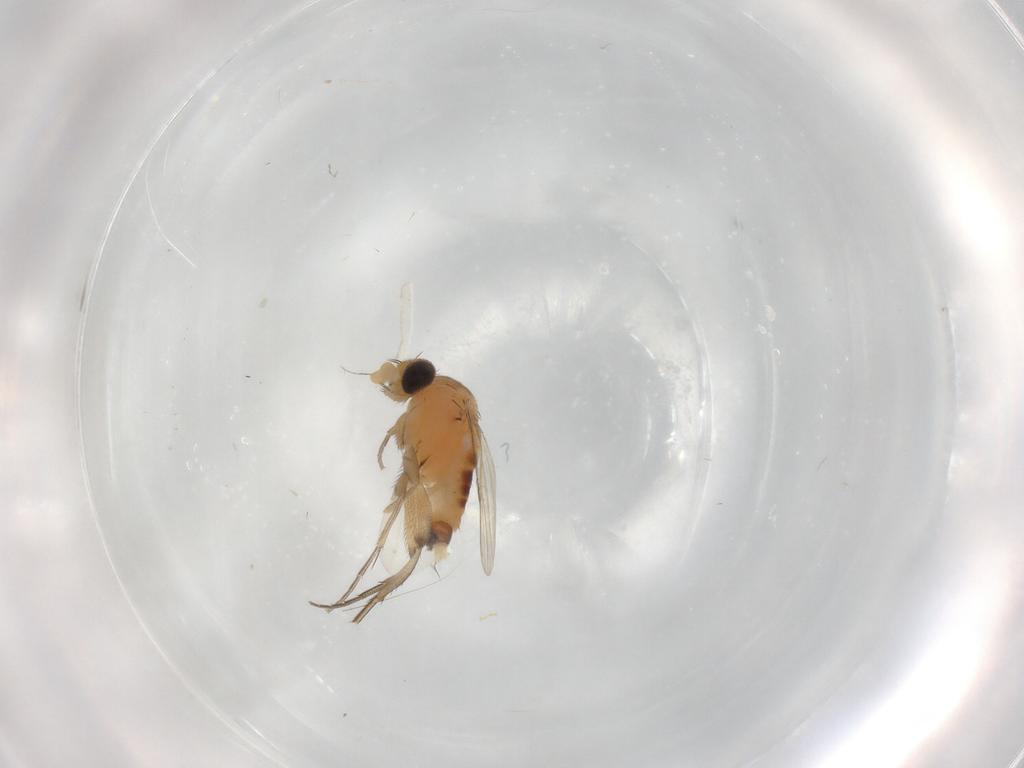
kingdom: Animalia
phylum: Arthropoda
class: Insecta
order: Diptera
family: Phoridae
